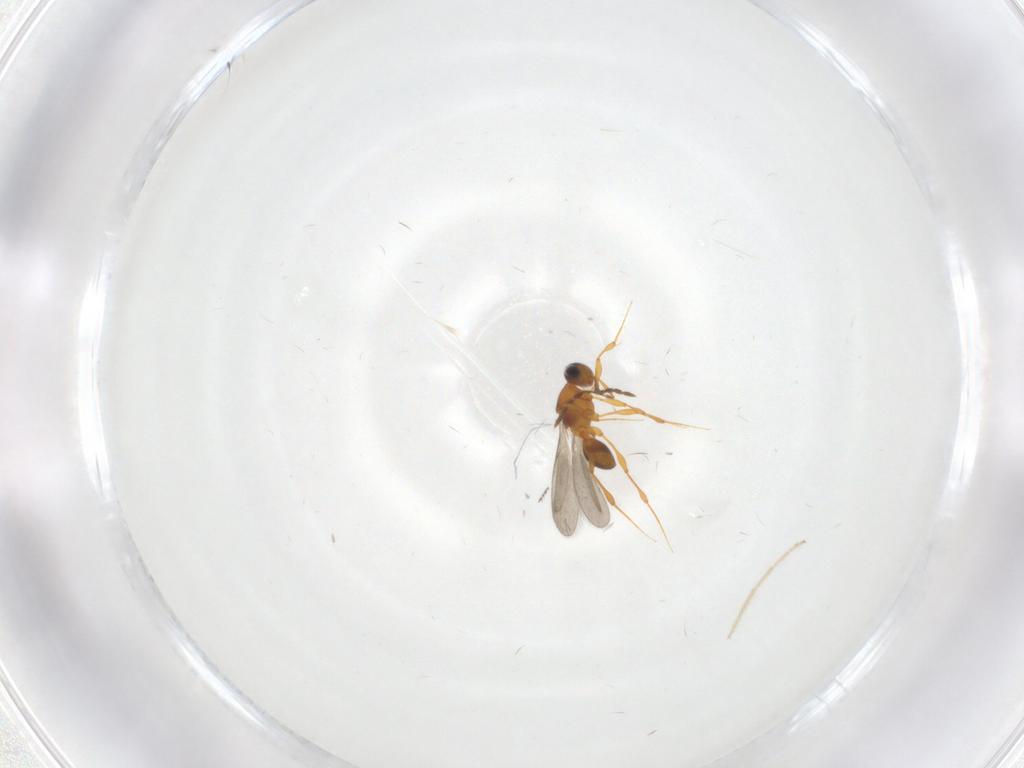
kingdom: Animalia
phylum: Arthropoda
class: Insecta
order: Hymenoptera
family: Platygastridae
